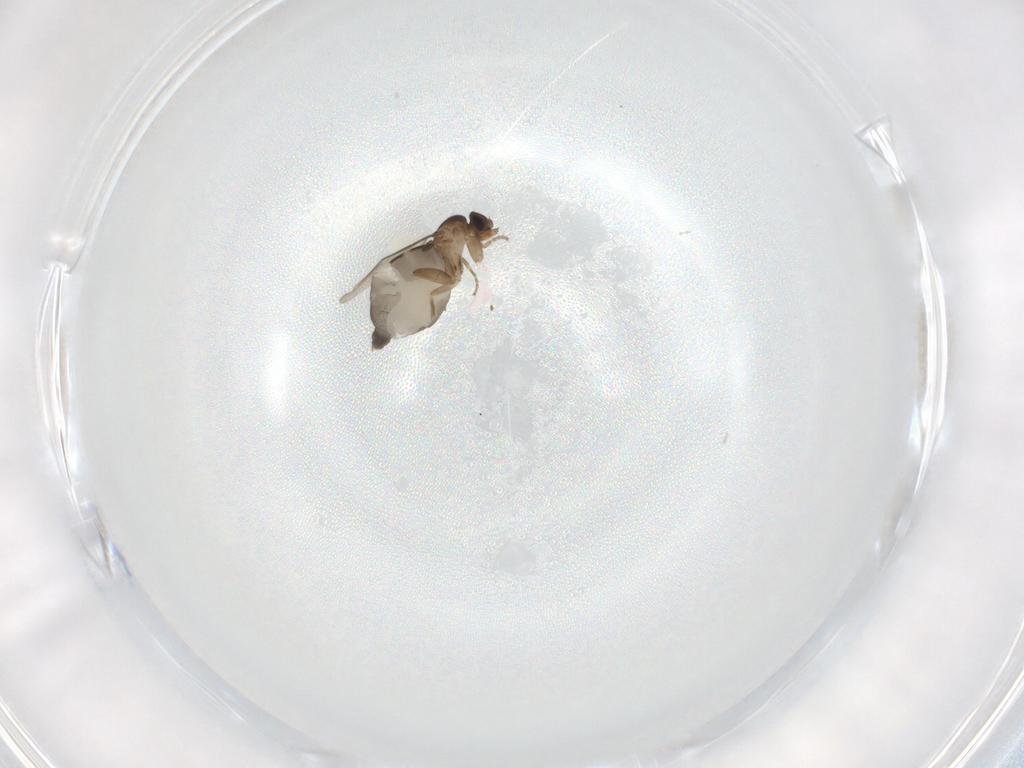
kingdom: Animalia
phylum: Arthropoda
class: Insecta
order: Diptera
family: Phoridae
